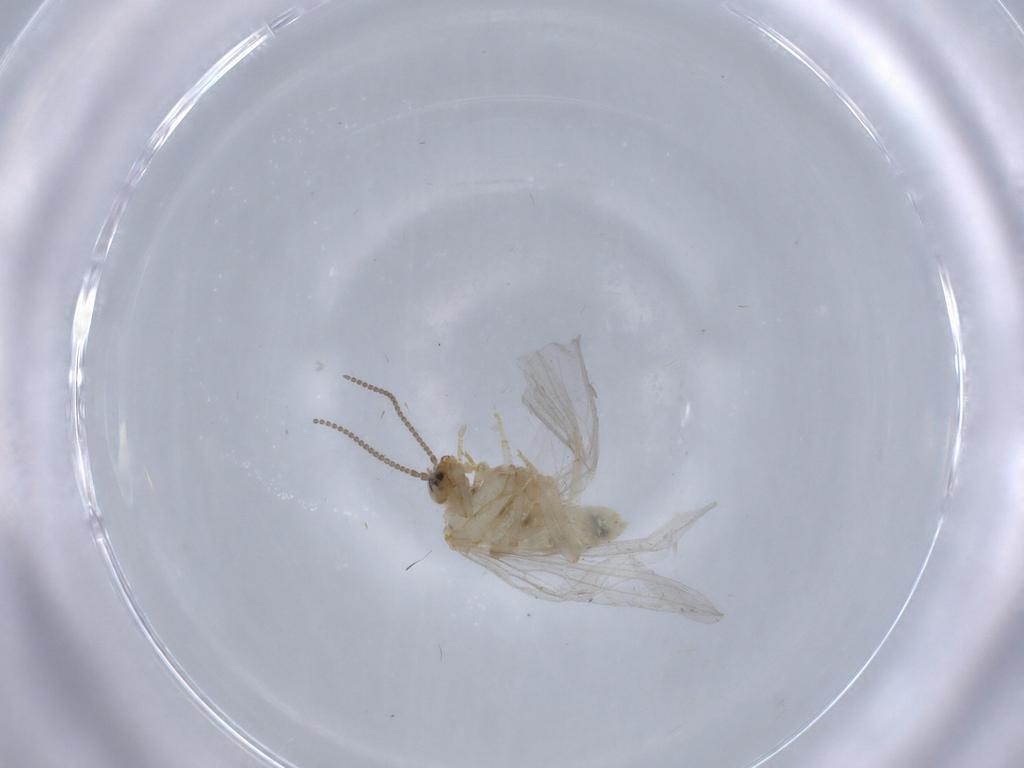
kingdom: Animalia
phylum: Arthropoda
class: Insecta
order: Neuroptera
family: Coniopterygidae
